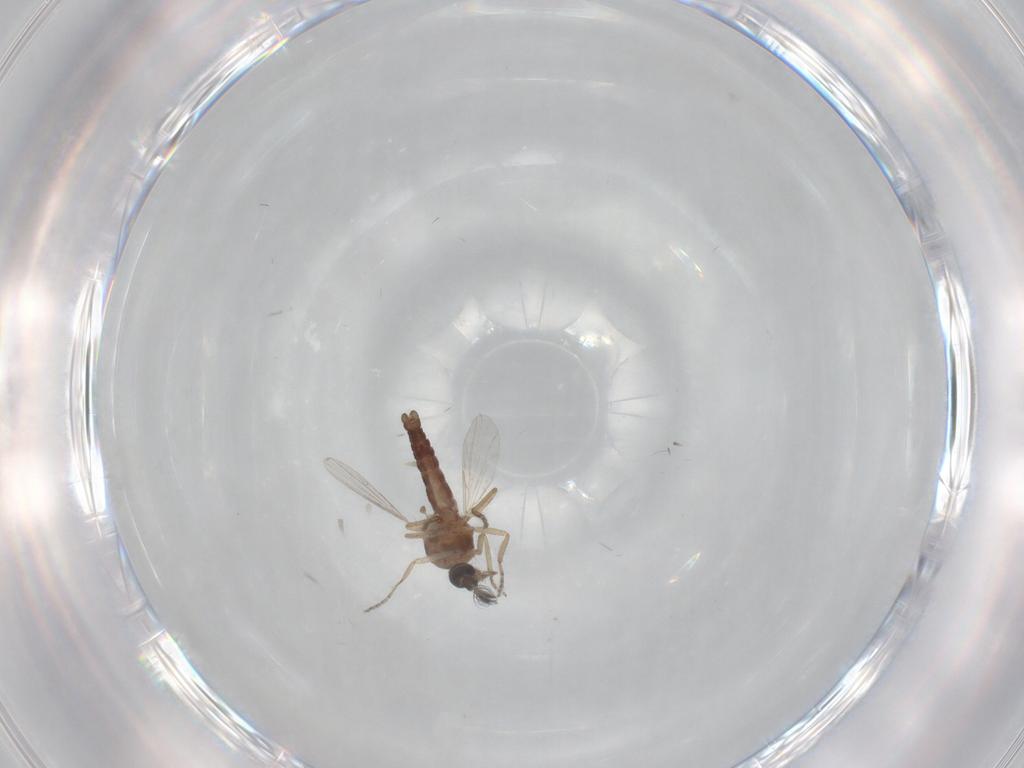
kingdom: Animalia
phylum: Arthropoda
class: Insecta
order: Diptera
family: Ceratopogonidae
